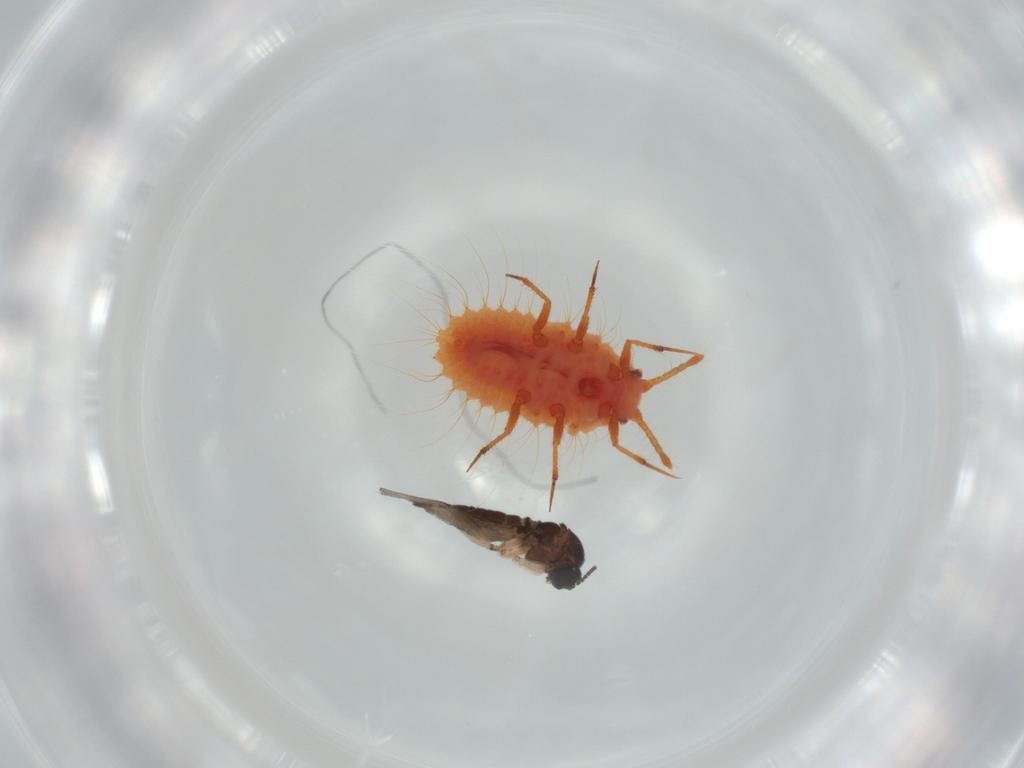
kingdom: Animalia
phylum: Arthropoda
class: Insecta
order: Diptera
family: Sciaridae
